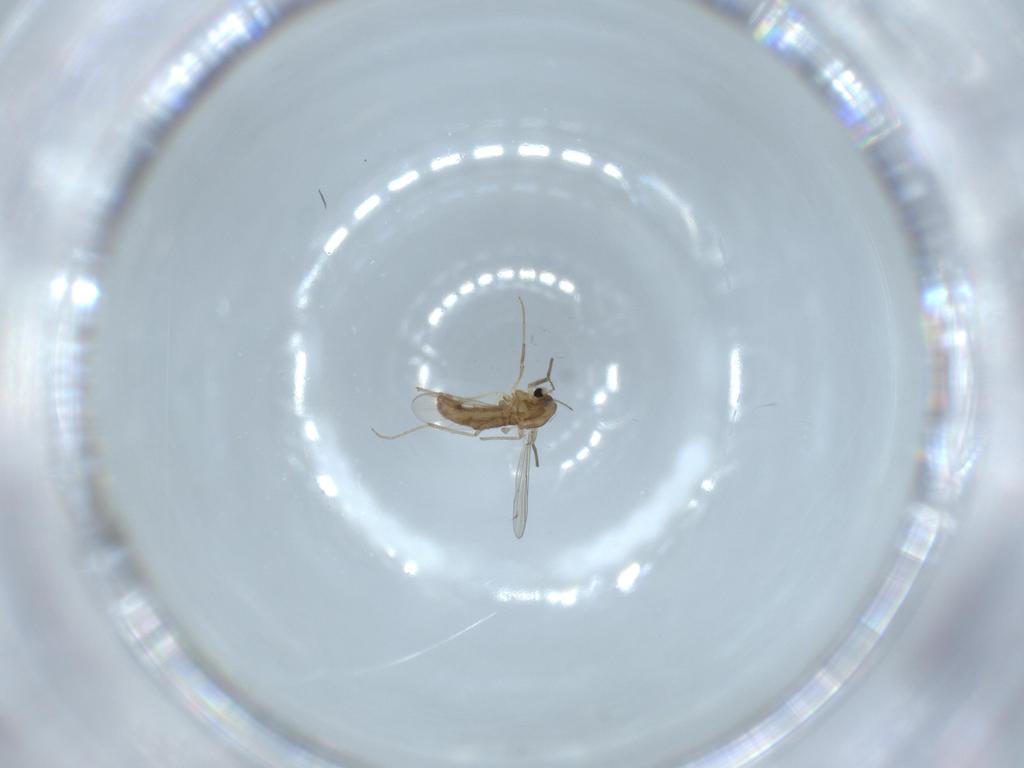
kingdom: Animalia
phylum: Arthropoda
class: Insecta
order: Diptera
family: Chironomidae
